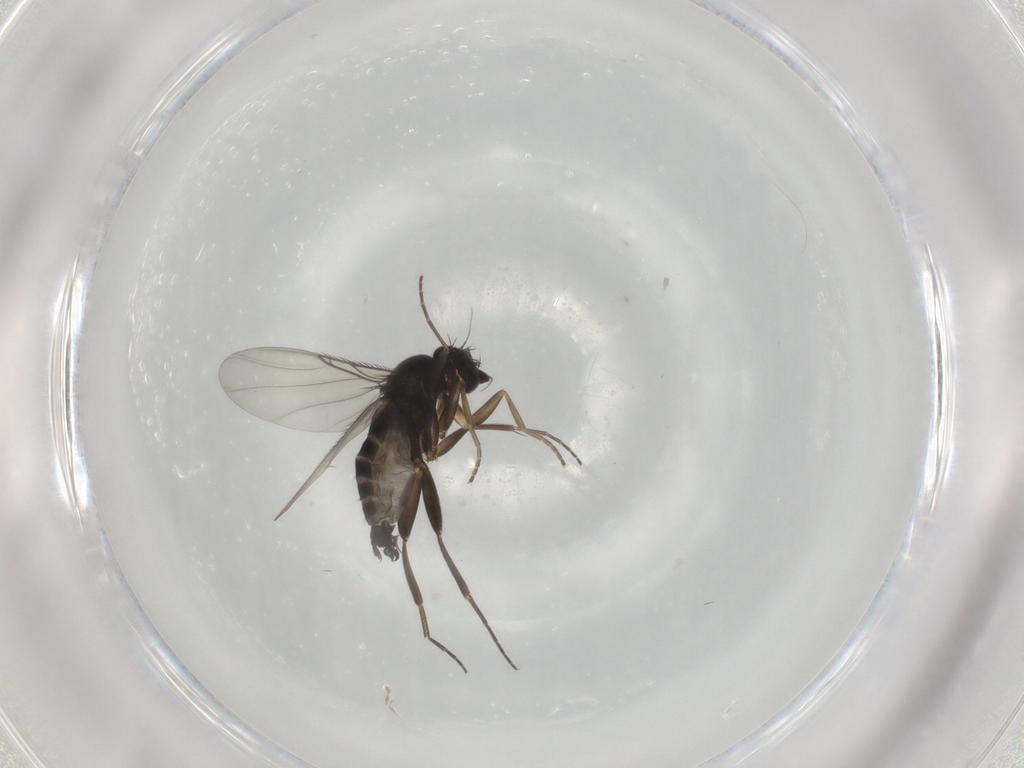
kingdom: Animalia
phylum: Arthropoda
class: Insecta
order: Diptera
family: Phoridae
